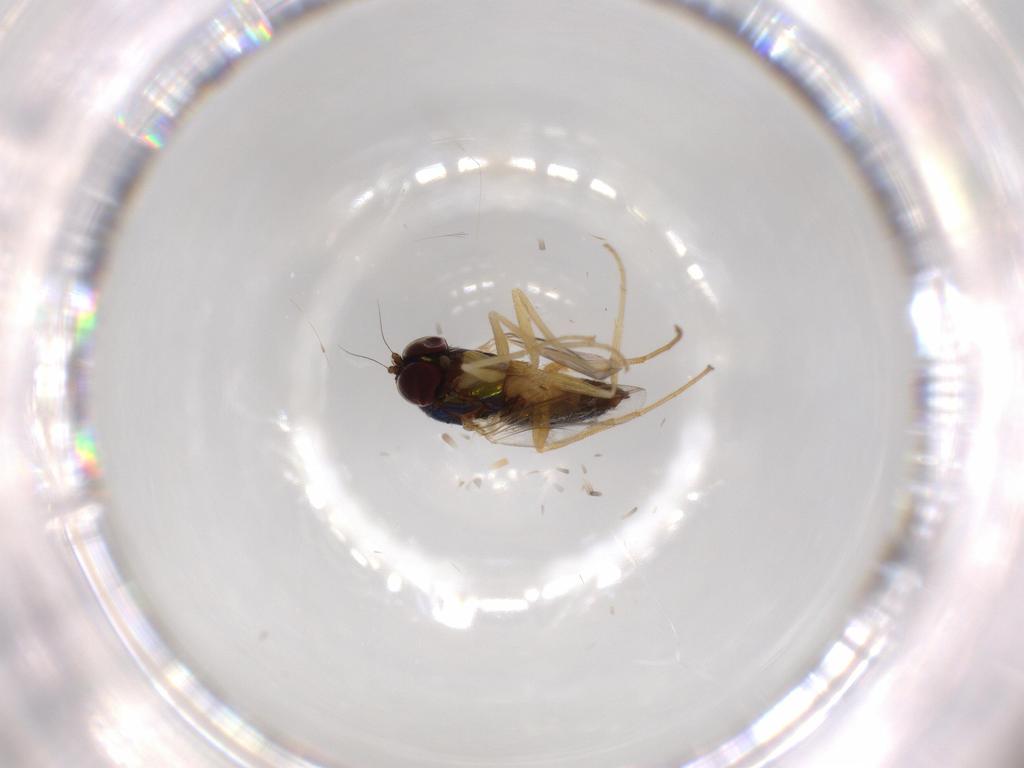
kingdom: Animalia
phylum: Arthropoda
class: Insecta
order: Diptera
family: Dolichopodidae
